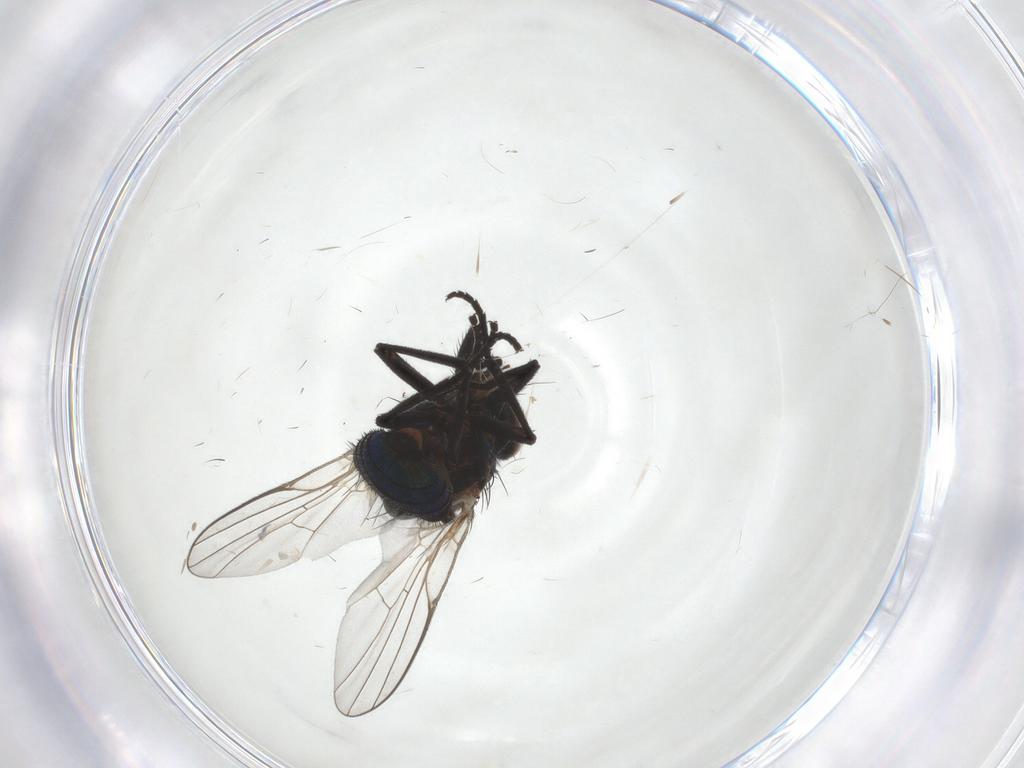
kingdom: Animalia
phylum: Arthropoda
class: Insecta
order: Diptera
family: Agromyzidae
